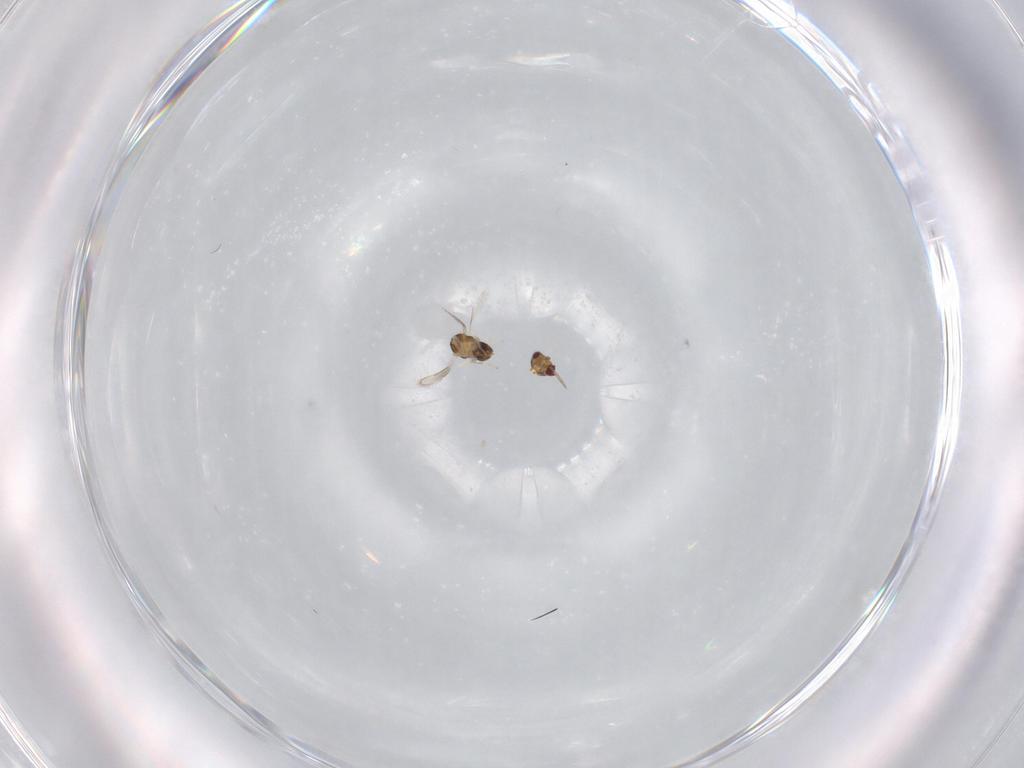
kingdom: Animalia
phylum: Arthropoda
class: Insecta
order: Hymenoptera
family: Aphelinidae
